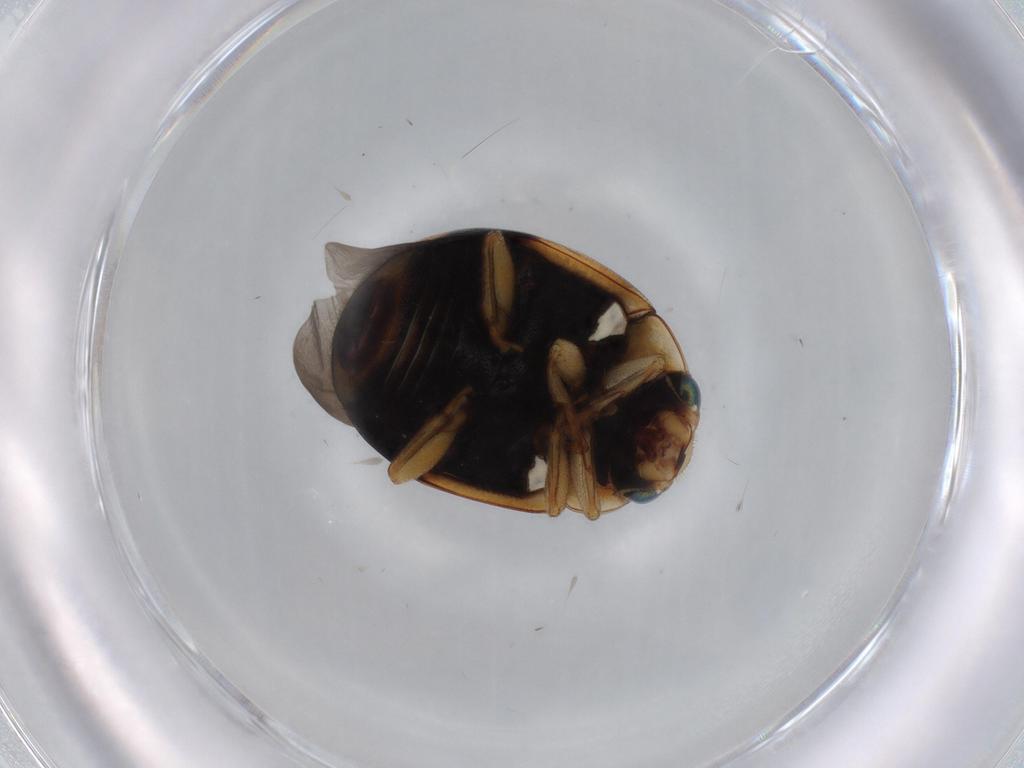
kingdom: Animalia
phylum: Arthropoda
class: Insecta
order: Coleoptera
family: Coccinellidae
